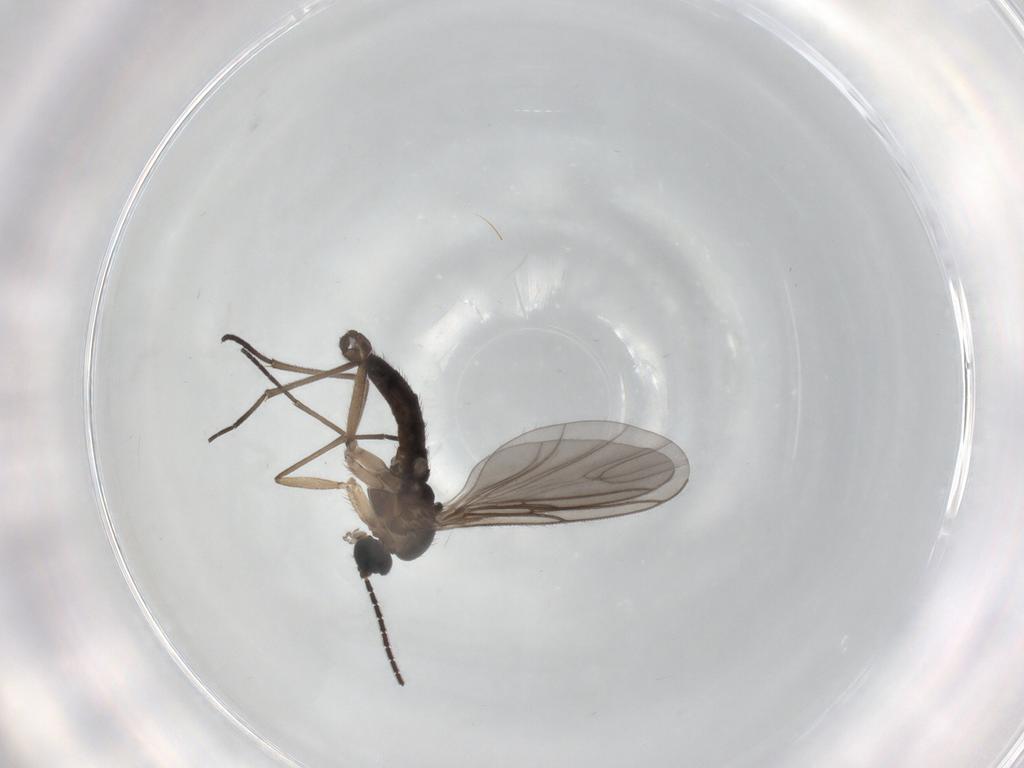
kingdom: Animalia
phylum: Arthropoda
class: Insecta
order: Diptera
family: Sciaridae
